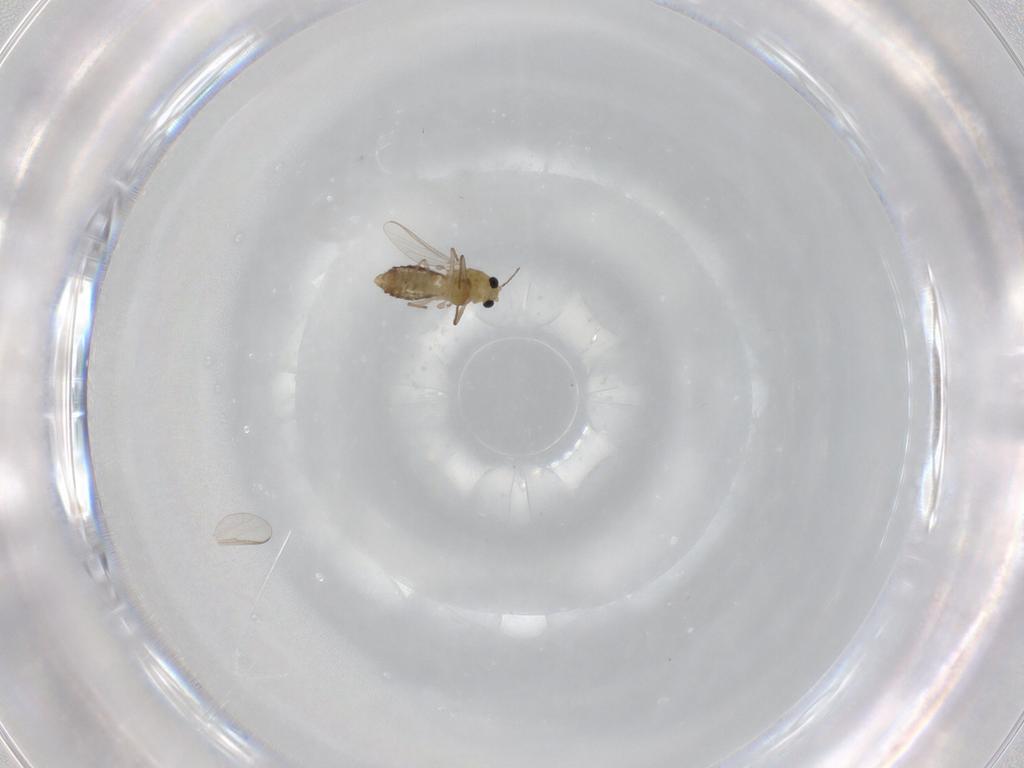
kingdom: Animalia
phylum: Arthropoda
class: Insecta
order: Diptera
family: Chironomidae
